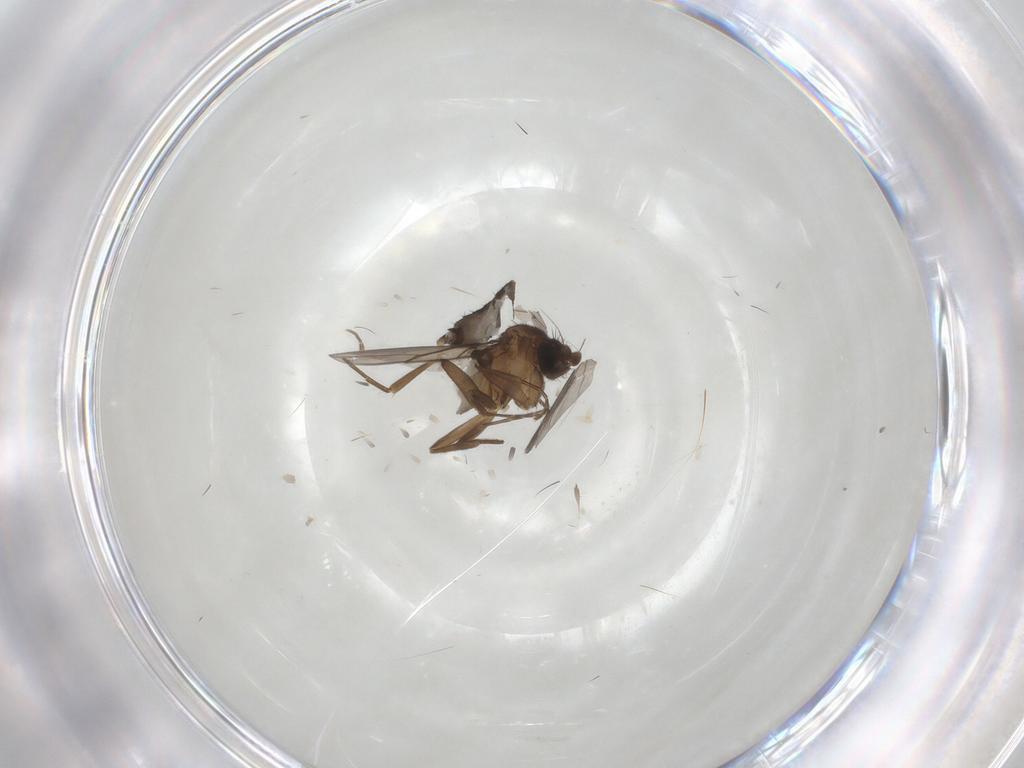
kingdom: Animalia
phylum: Arthropoda
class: Insecta
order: Diptera
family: Phoridae
